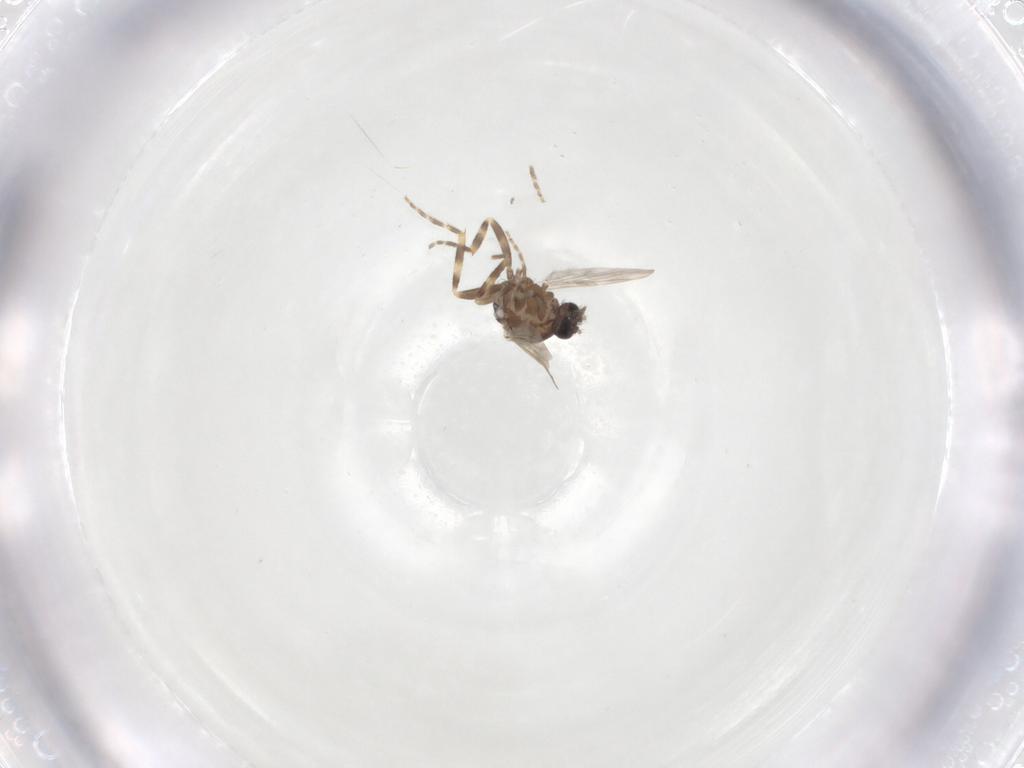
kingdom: Animalia
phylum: Arthropoda
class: Insecta
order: Diptera
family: Ceratopogonidae
